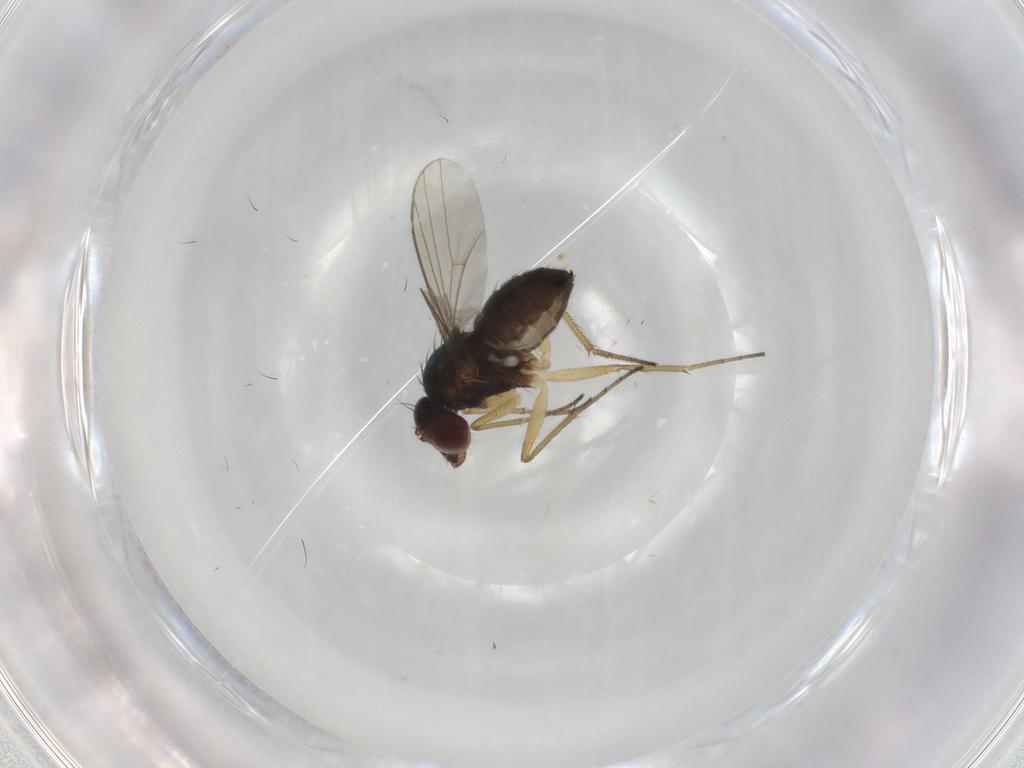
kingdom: Animalia
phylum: Arthropoda
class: Insecta
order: Diptera
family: Dolichopodidae
